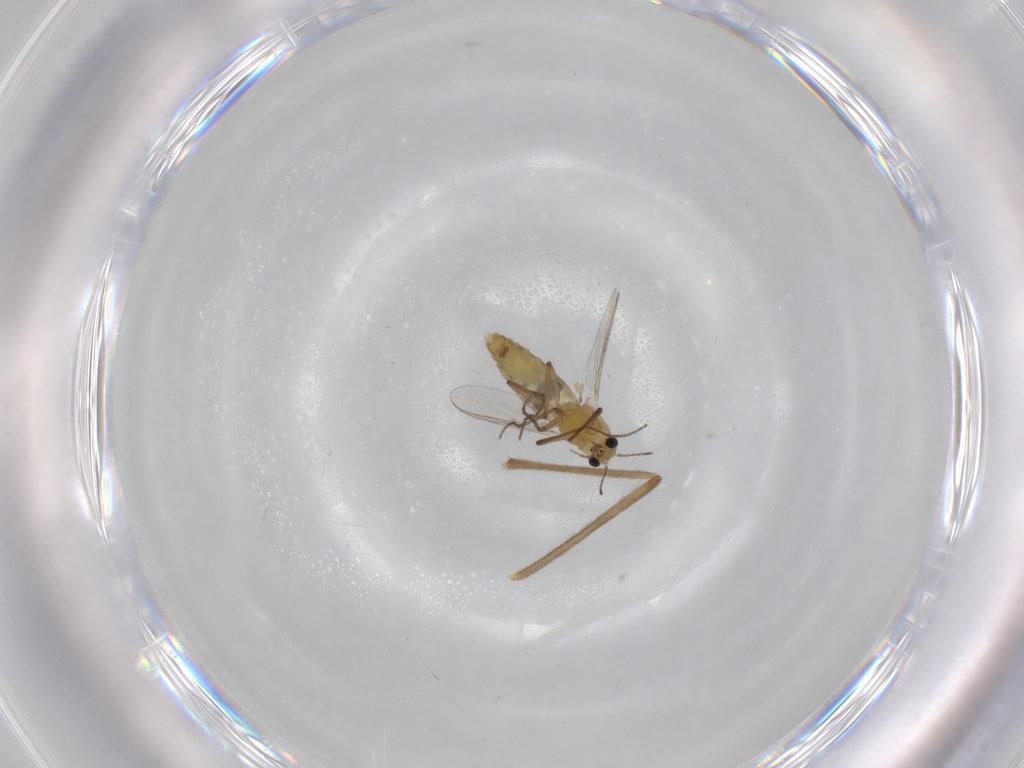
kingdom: Animalia
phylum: Arthropoda
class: Insecta
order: Diptera
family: Chironomidae
